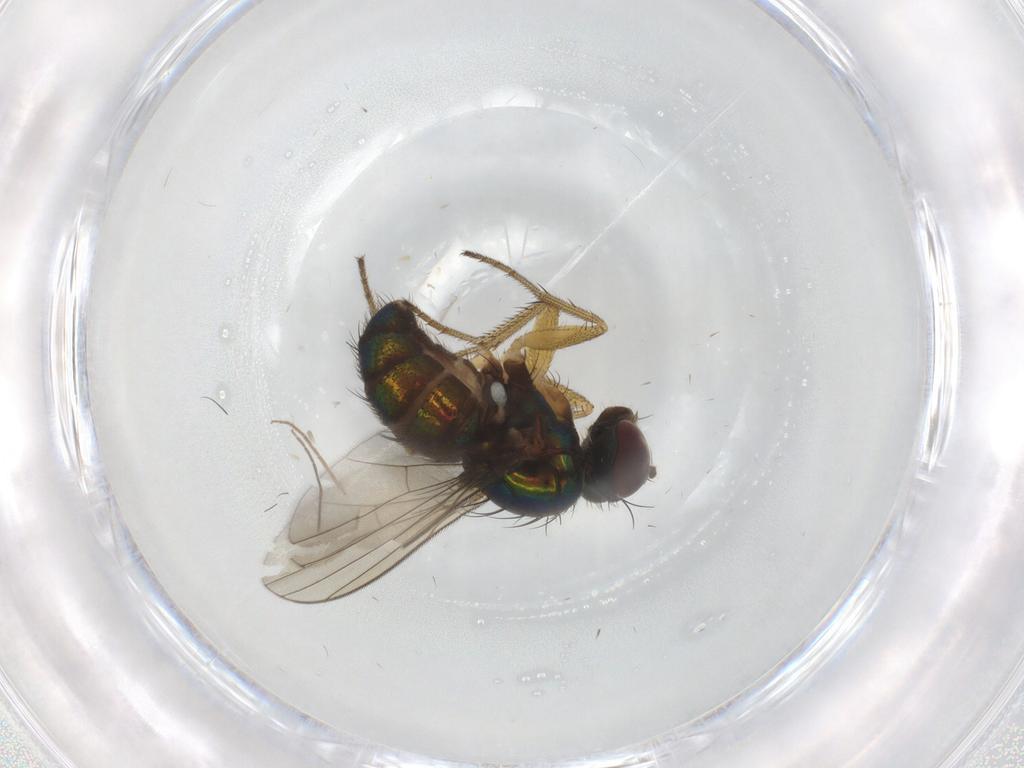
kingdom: Animalia
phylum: Arthropoda
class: Insecta
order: Diptera
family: Dolichopodidae
